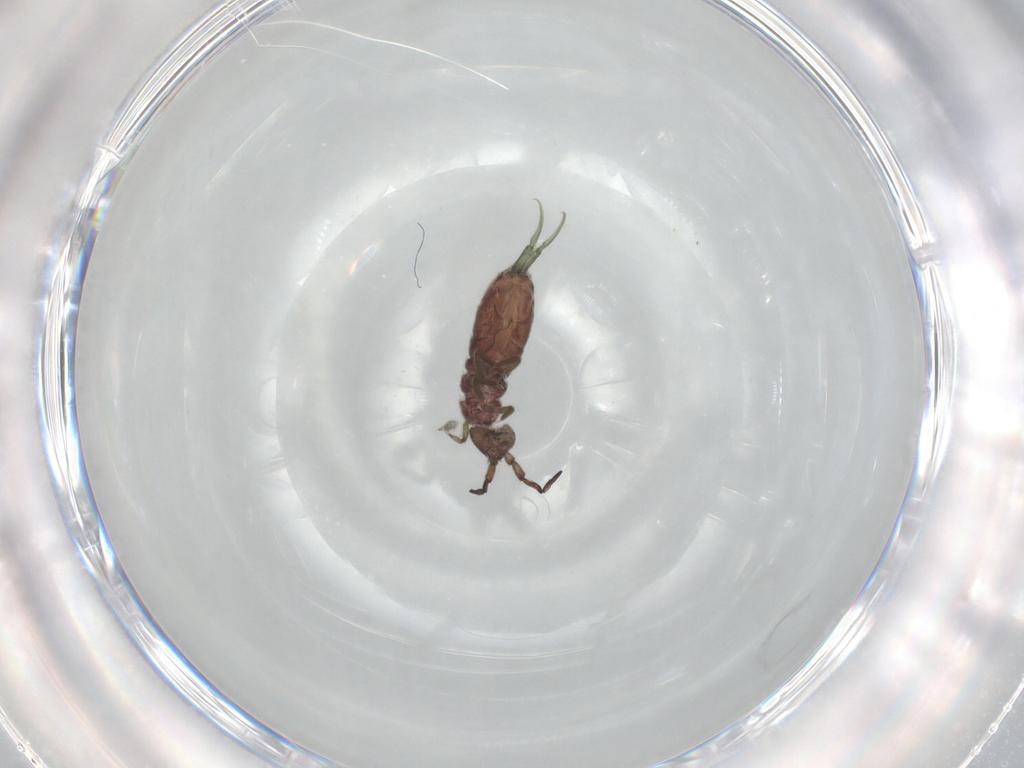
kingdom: Animalia
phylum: Arthropoda
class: Collembola
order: Entomobryomorpha
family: Isotomidae
